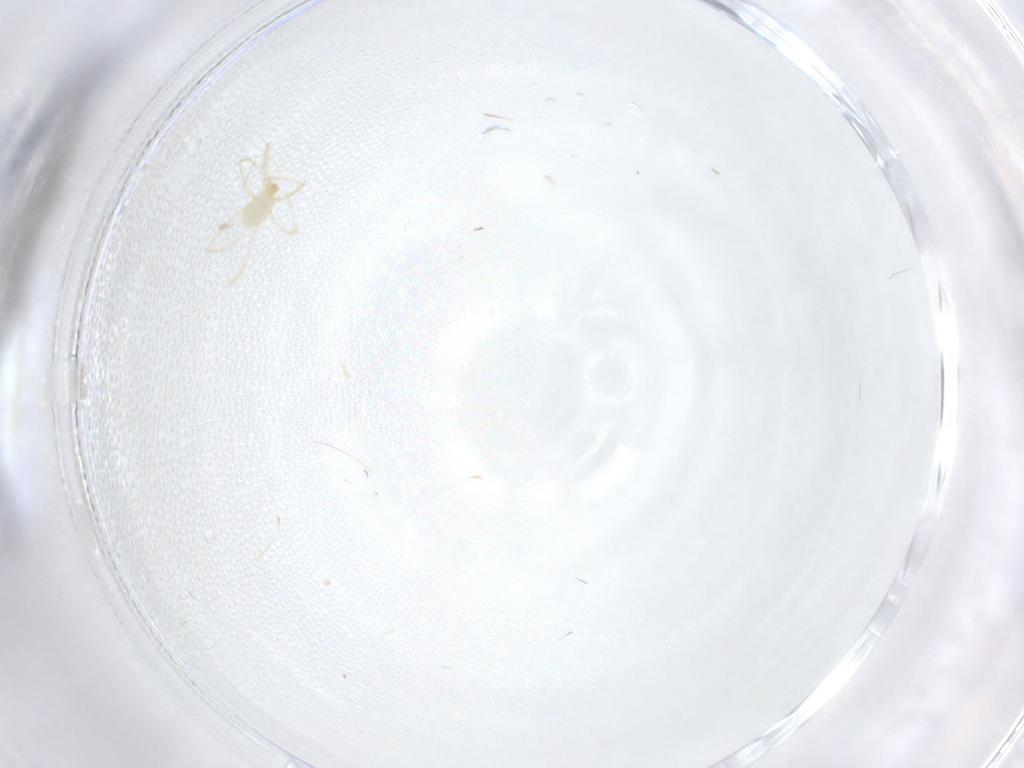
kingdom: Animalia
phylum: Arthropoda
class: Arachnida
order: Trombidiformes
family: Erythraeidae
